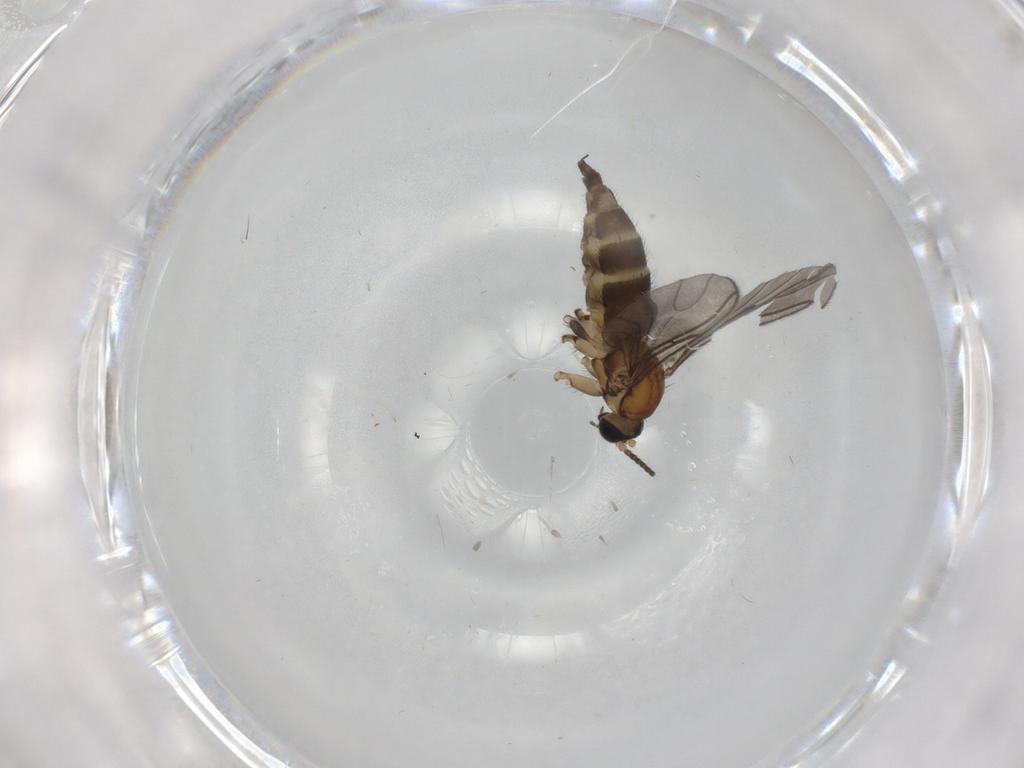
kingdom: Animalia
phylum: Arthropoda
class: Insecta
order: Diptera
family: Sciaridae
